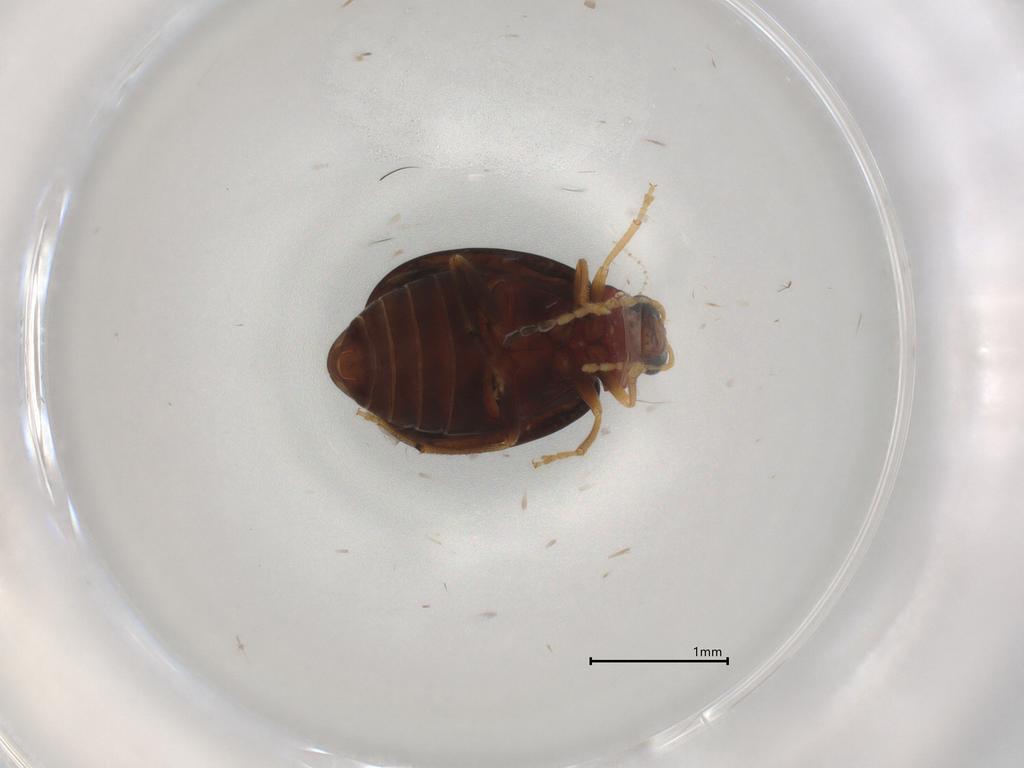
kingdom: Animalia
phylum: Arthropoda
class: Insecta
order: Coleoptera
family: Chrysomelidae
